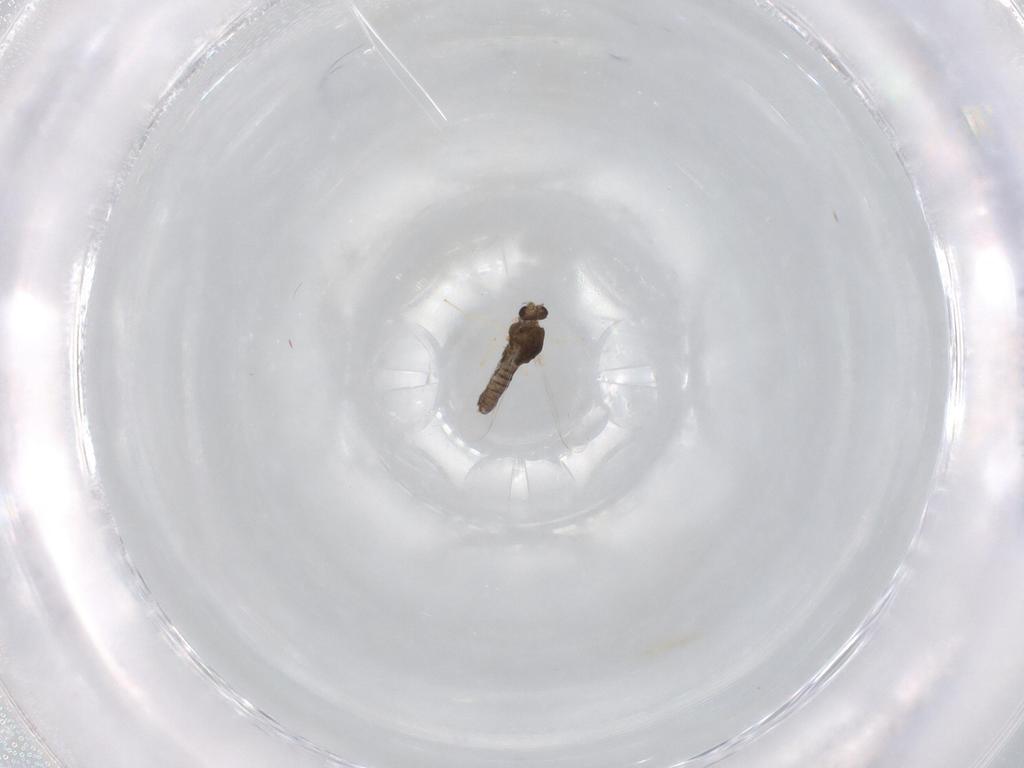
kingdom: Animalia
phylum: Arthropoda
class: Insecta
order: Diptera
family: Chironomidae
